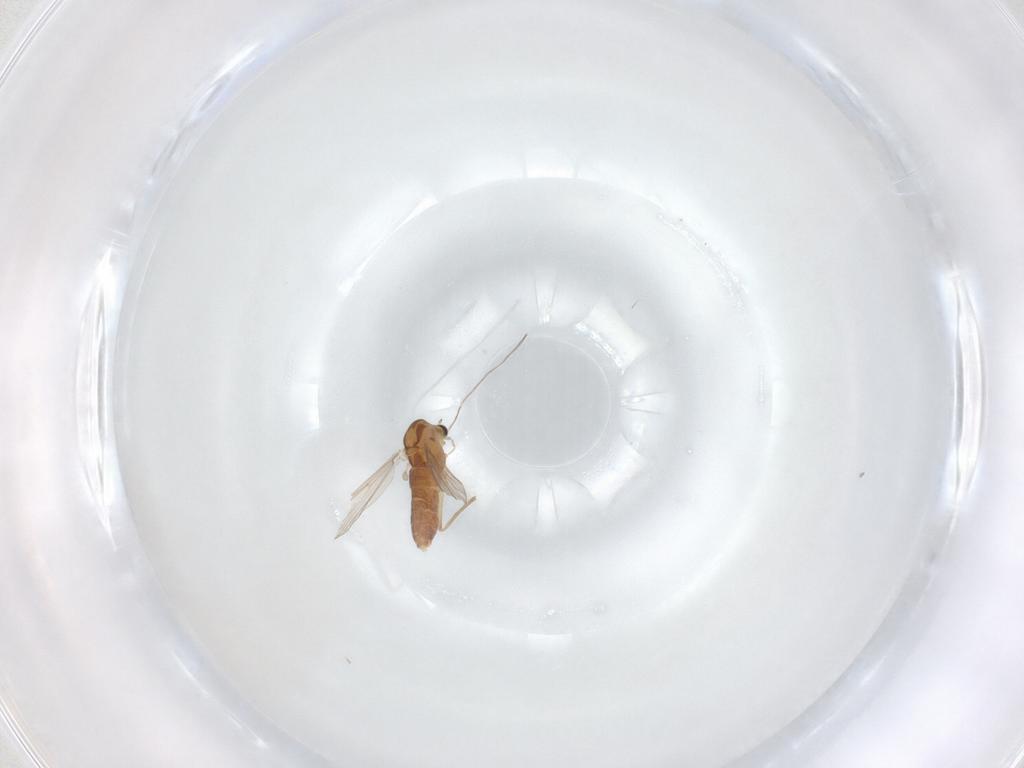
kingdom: Animalia
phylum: Arthropoda
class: Insecta
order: Diptera
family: Chironomidae
